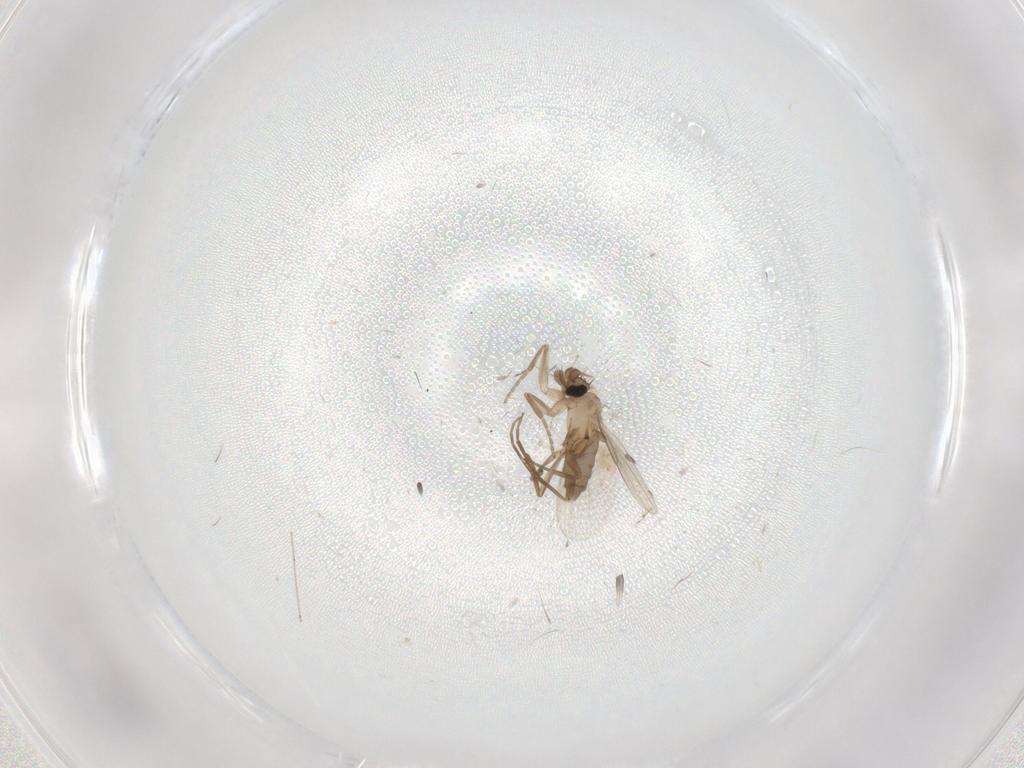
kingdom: Animalia
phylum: Arthropoda
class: Insecta
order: Diptera
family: Phoridae
